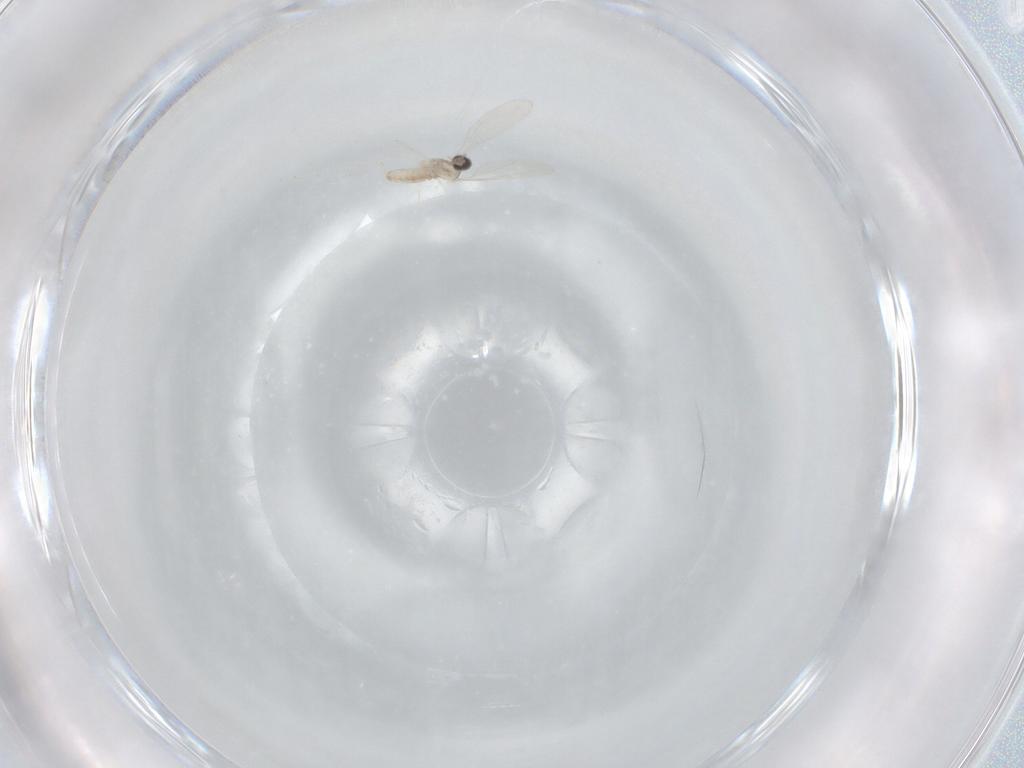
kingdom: Animalia
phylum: Arthropoda
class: Insecta
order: Diptera
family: Cecidomyiidae
